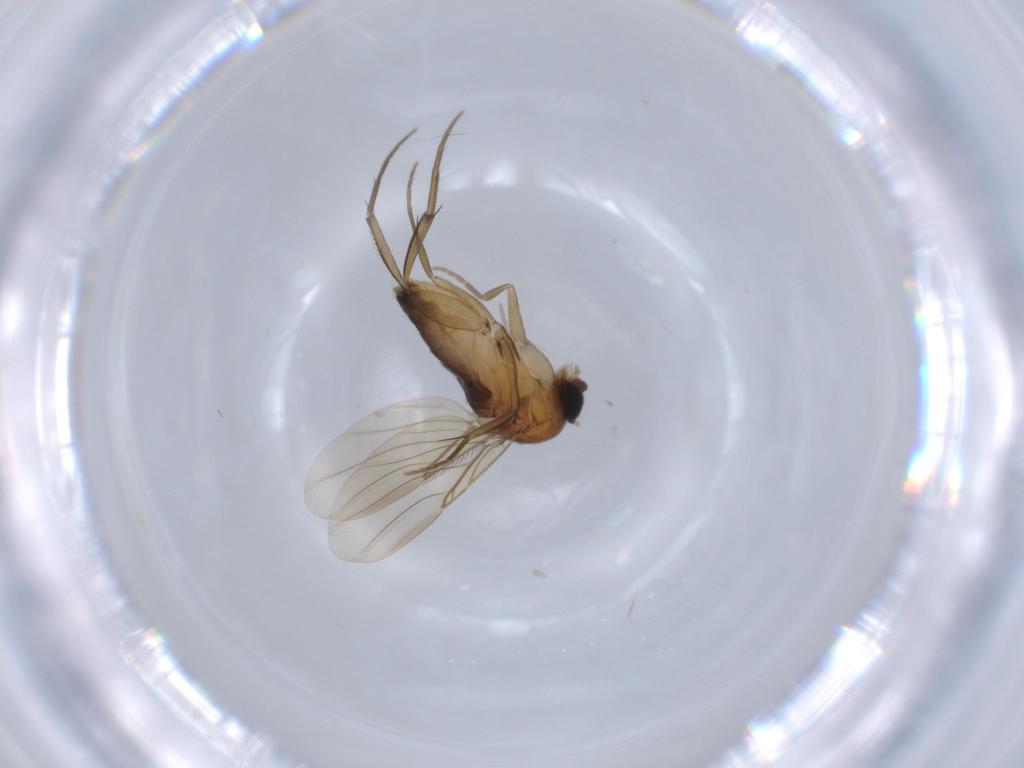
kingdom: Animalia
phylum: Arthropoda
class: Insecta
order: Diptera
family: Phoridae
